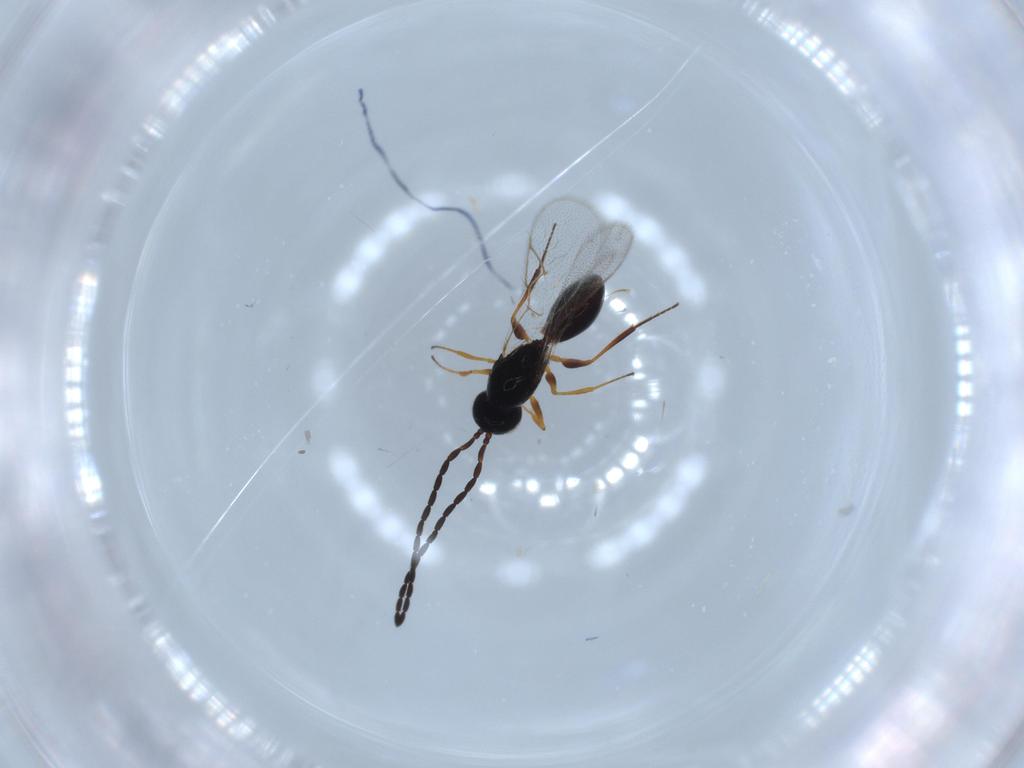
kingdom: Animalia
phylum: Arthropoda
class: Insecta
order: Hymenoptera
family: Figitidae
